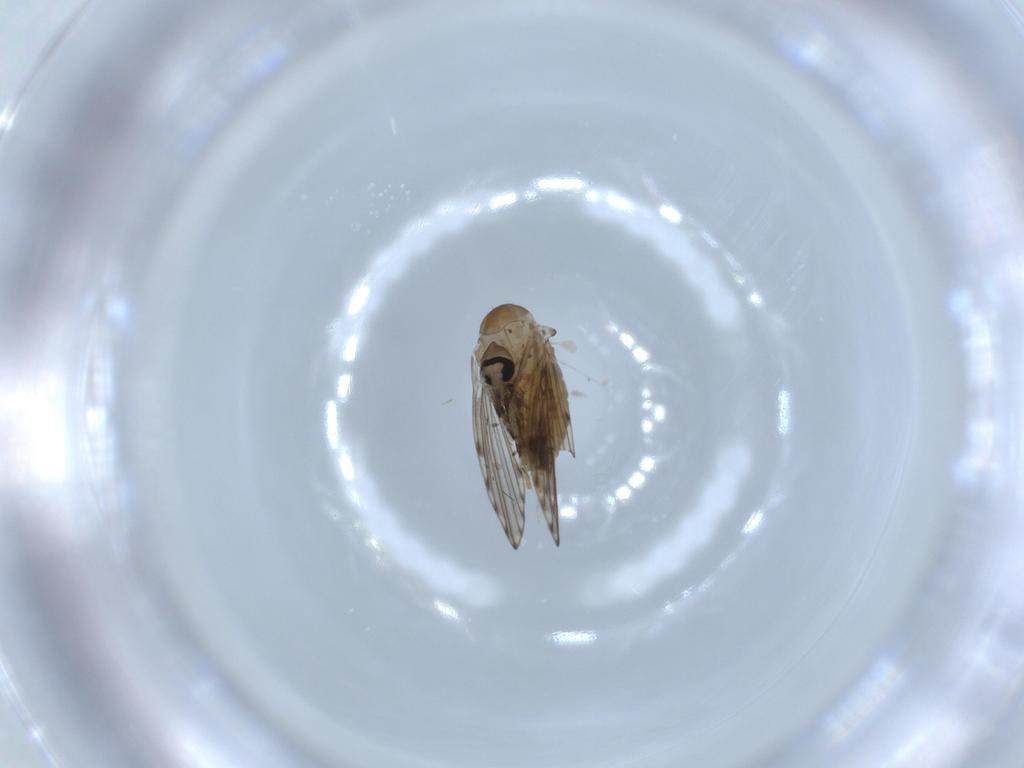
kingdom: Animalia
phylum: Arthropoda
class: Insecta
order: Diptera
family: Psychodidae
